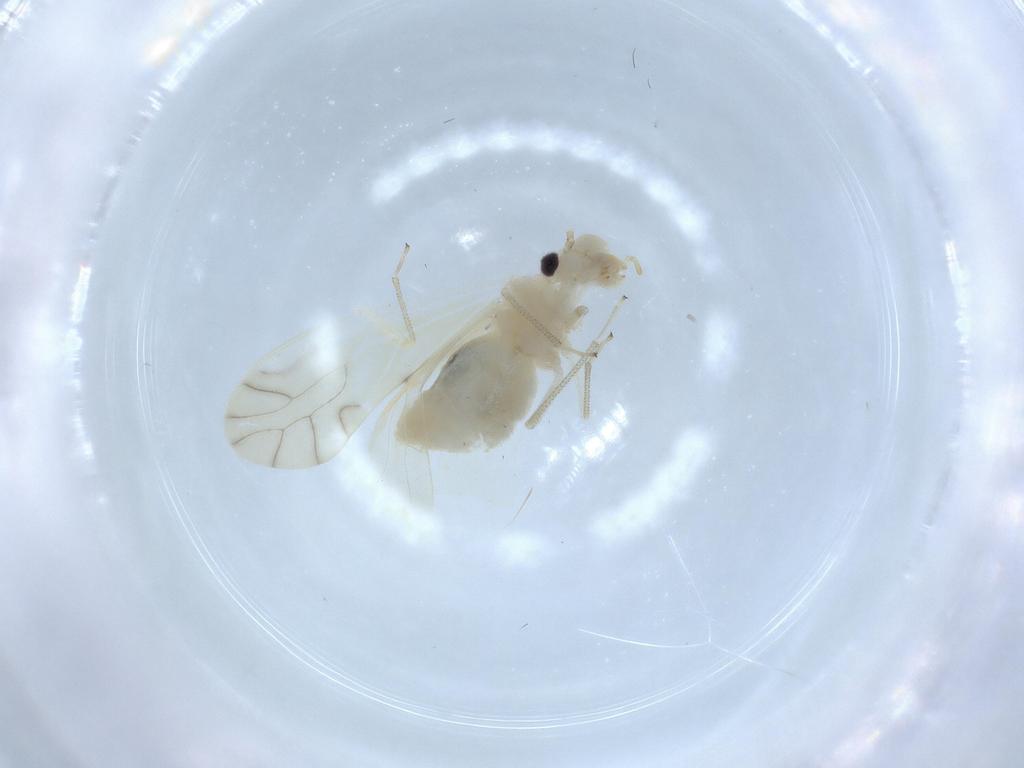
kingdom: Animalia
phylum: Arthropoda
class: Insecta
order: Psocodea
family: Caeciliusidae
